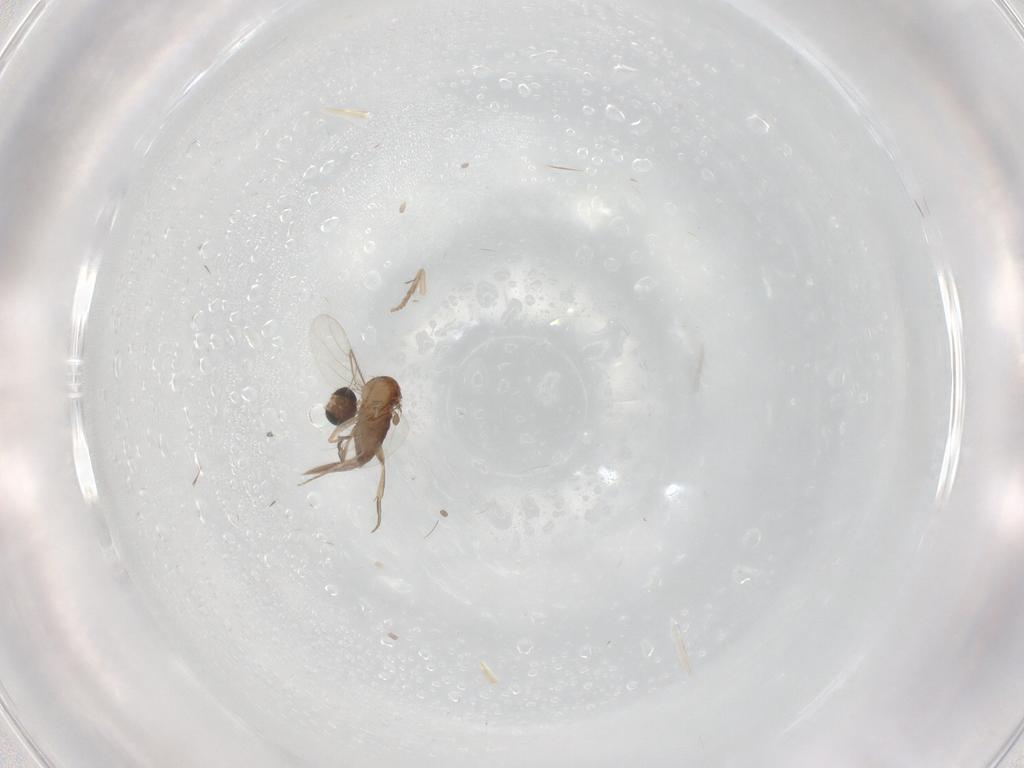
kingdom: Animalia
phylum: Arthropoda
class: Insecta
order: Diptera
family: Ceratopogonidae
